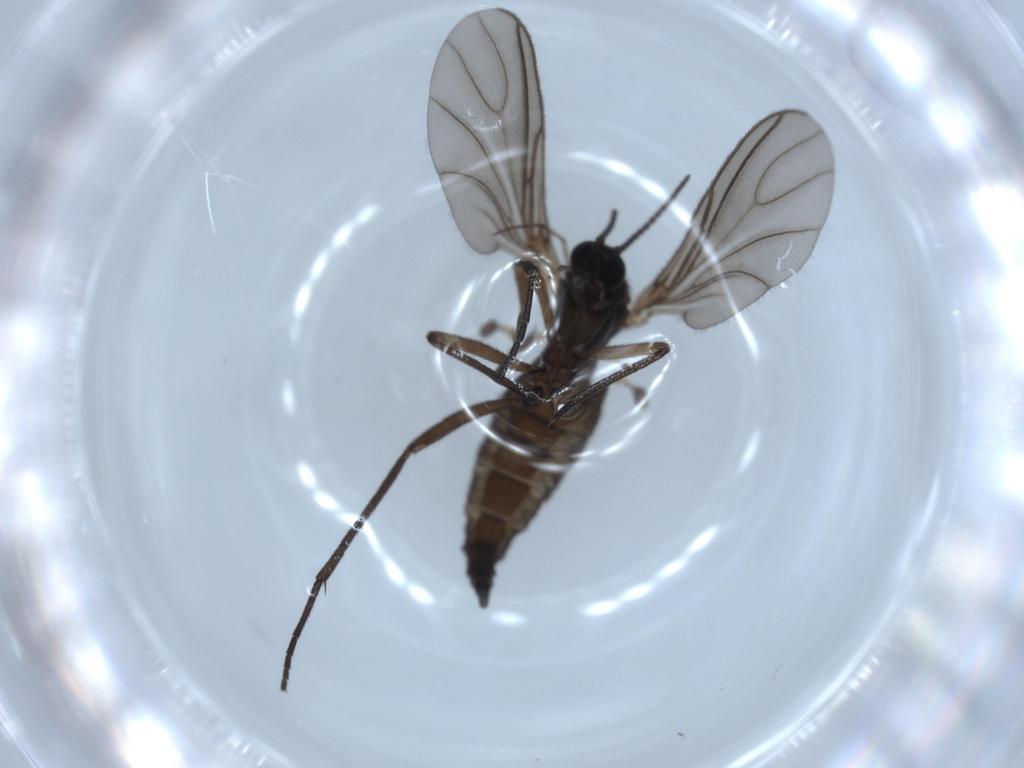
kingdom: Animalia
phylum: Arthropoda
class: Insecta
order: Diptera
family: Sciaridae
